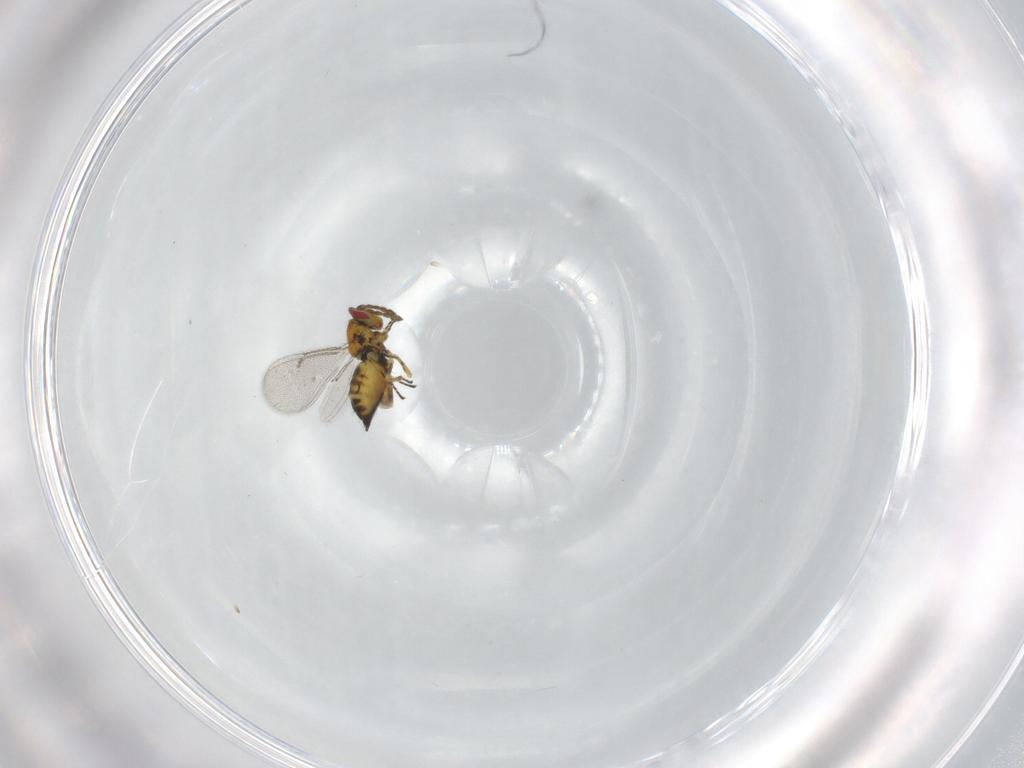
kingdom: Animalia
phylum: Arthropoda
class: Insecta
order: Hymenoptera
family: Eulophidae
